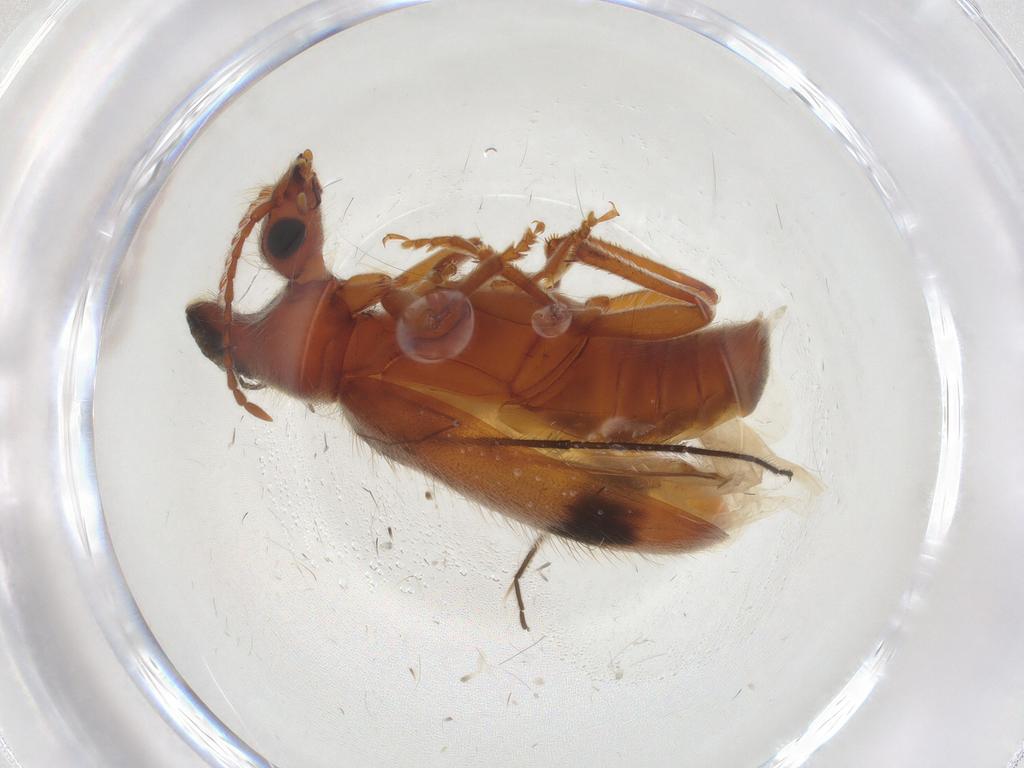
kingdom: Animalia
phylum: Arthropoda
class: Insecta
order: Coleoptera
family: Anthicidae
